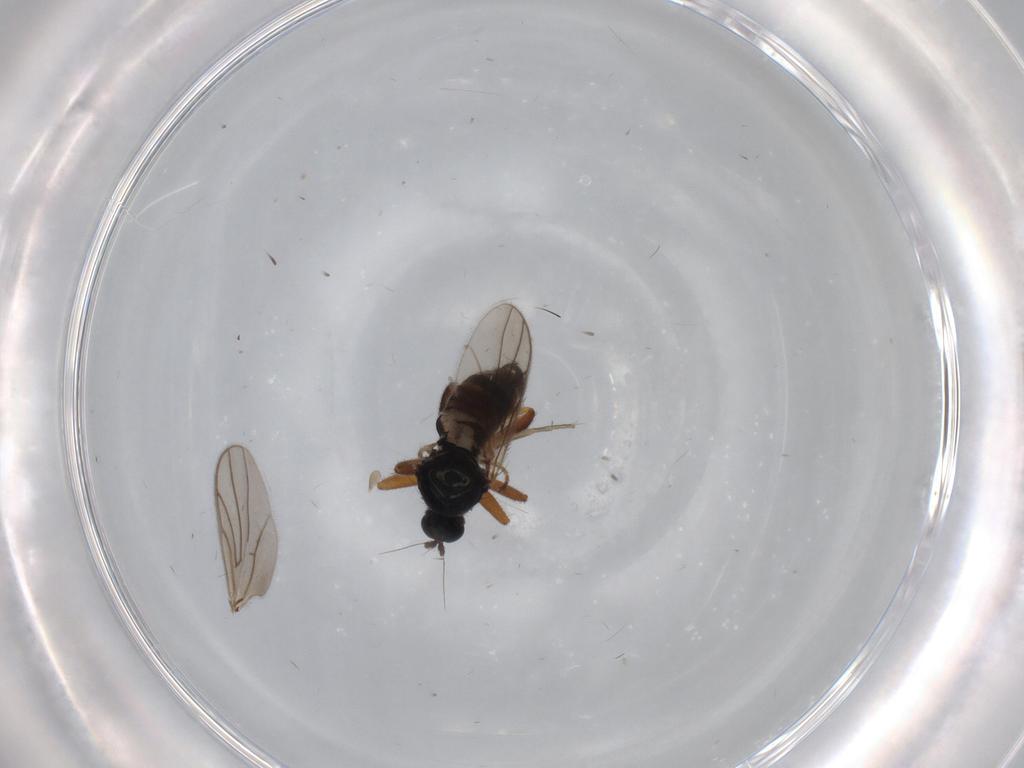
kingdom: Animalia
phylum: Arthropoda
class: Insecta
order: Diptera
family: Hybotidae
